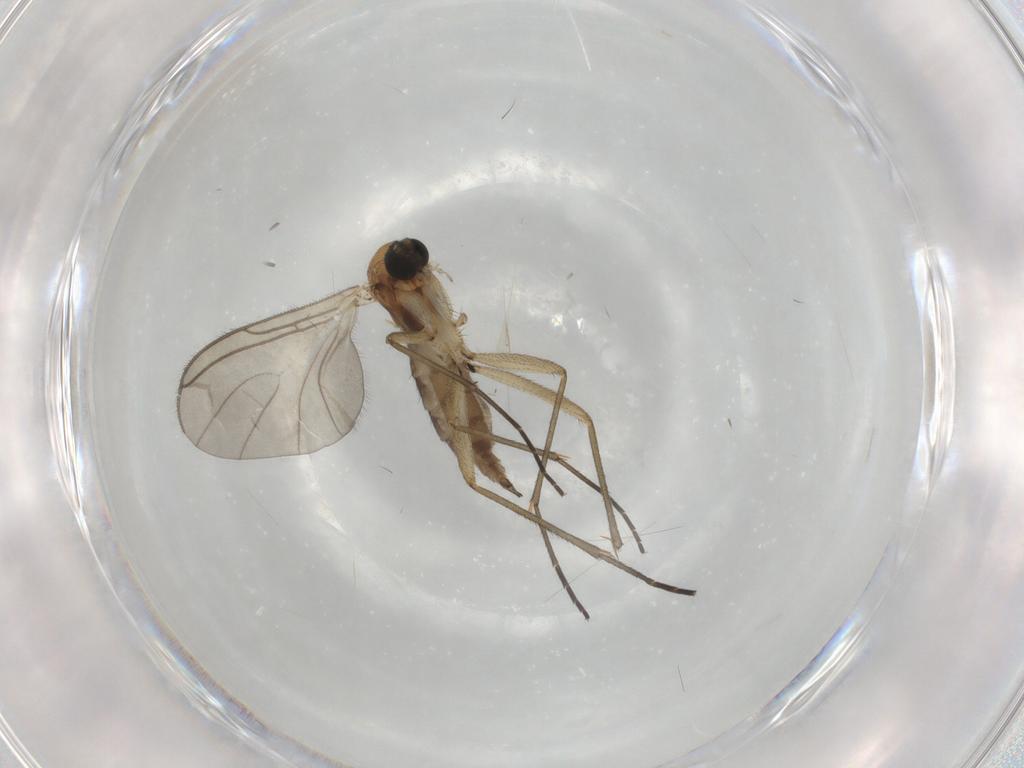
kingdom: Animalia
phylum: Arthropoda
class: Insecta
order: Diptera
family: Sciaridae
